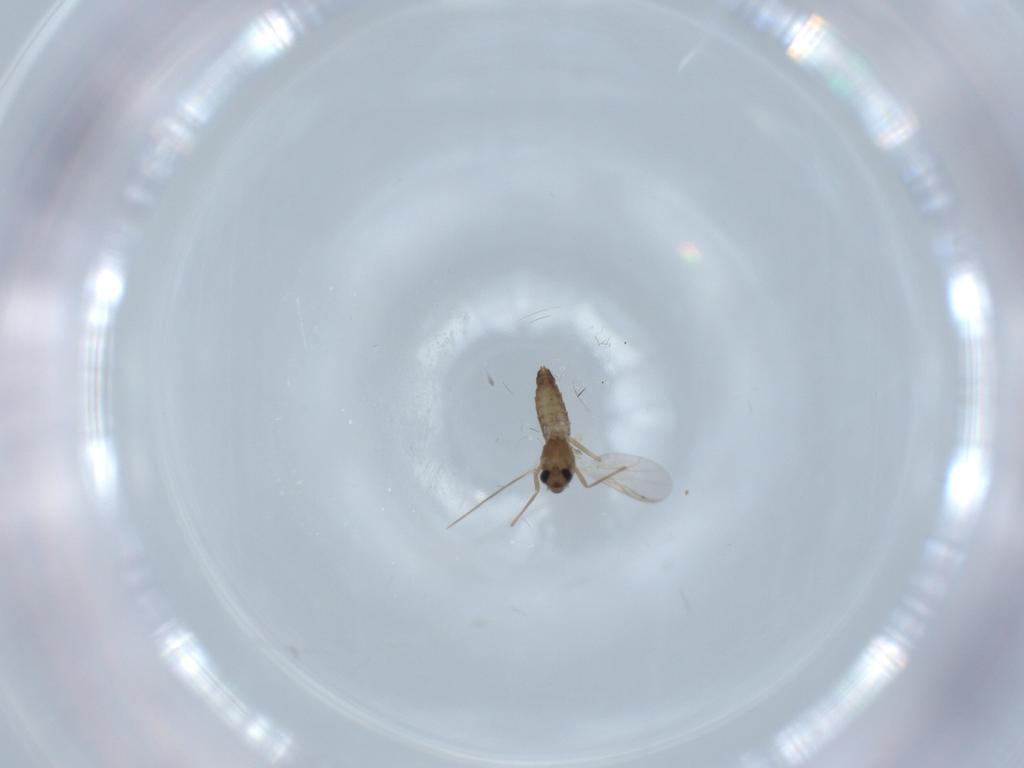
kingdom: Animalia
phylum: Arthropoda
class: Insecta
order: Diptera
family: Chironomidae
